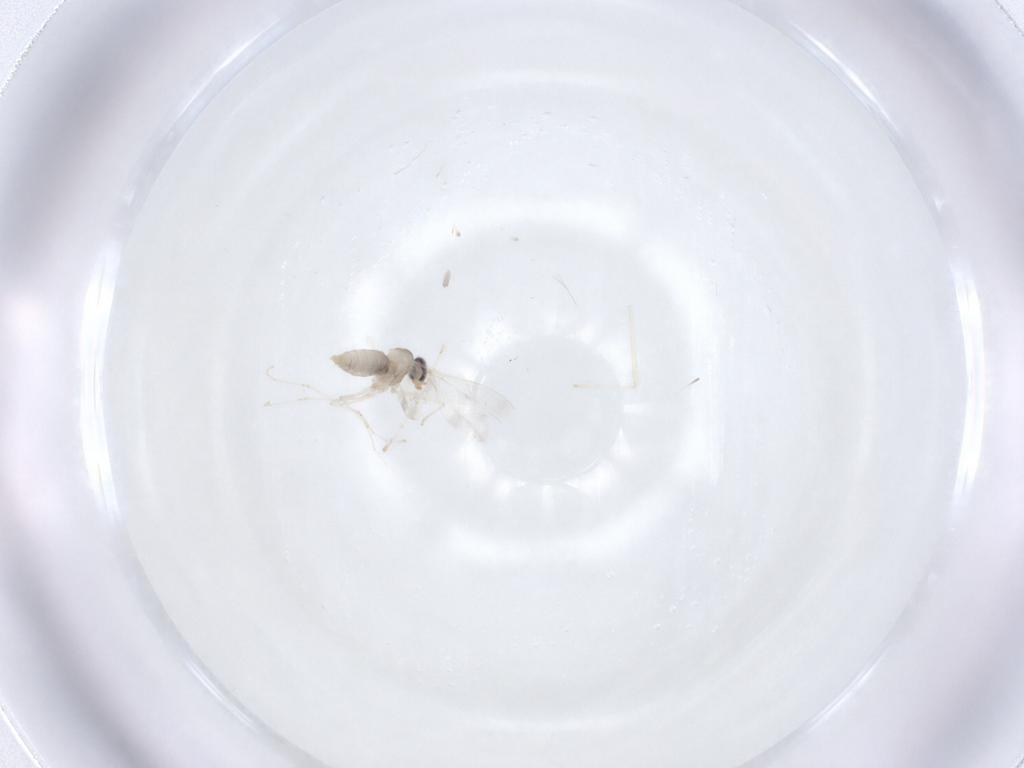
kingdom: Animalia
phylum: Arthropoda
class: Insecta
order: Diptera
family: Cecidomyiidae
